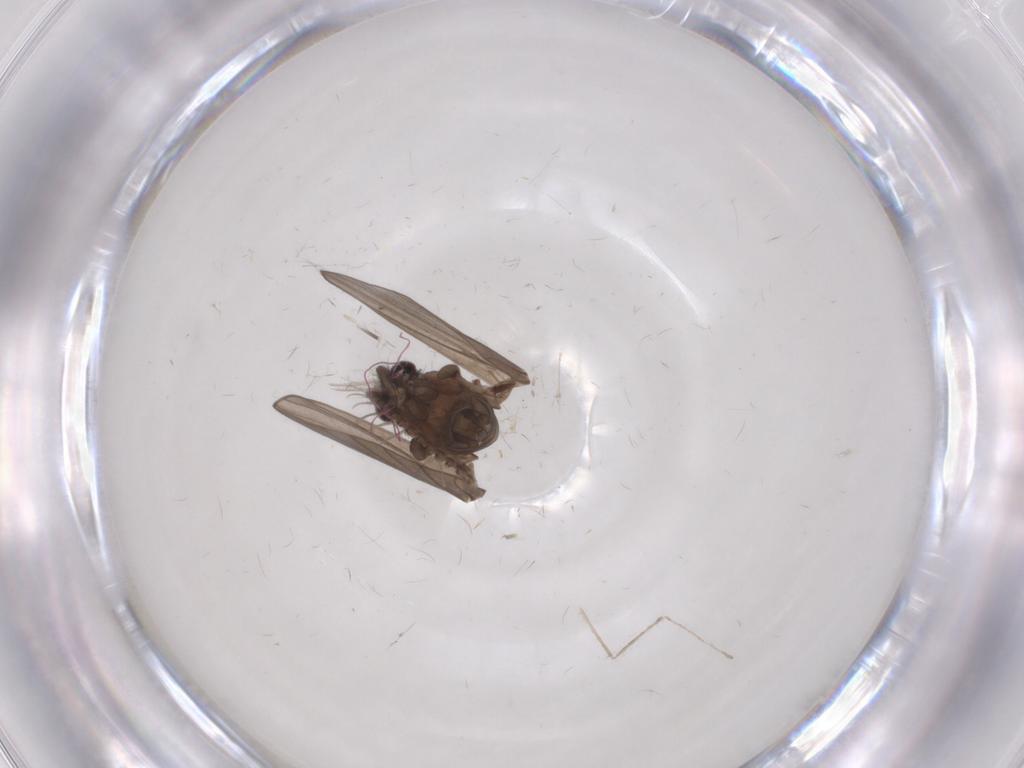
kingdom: Animalia
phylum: Arthropoda
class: Insecta
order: Diptera
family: Psychodidae
